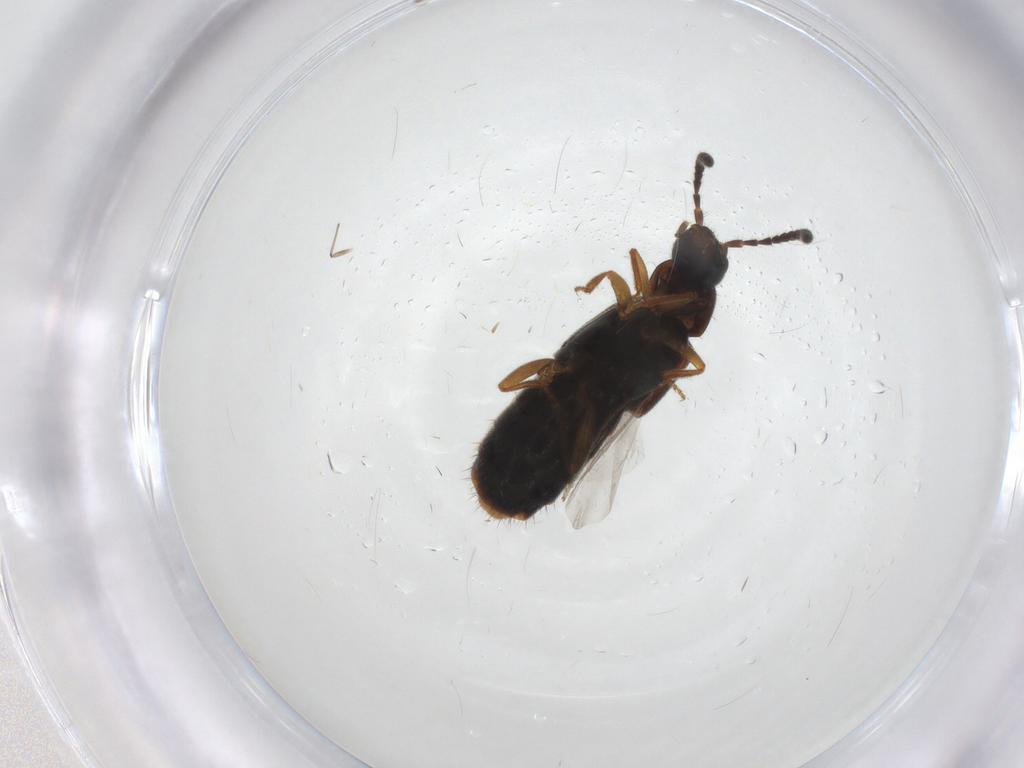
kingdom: Animalia
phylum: Arthropoda
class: Insecta
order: Coleoptera
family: Staphylinidae
